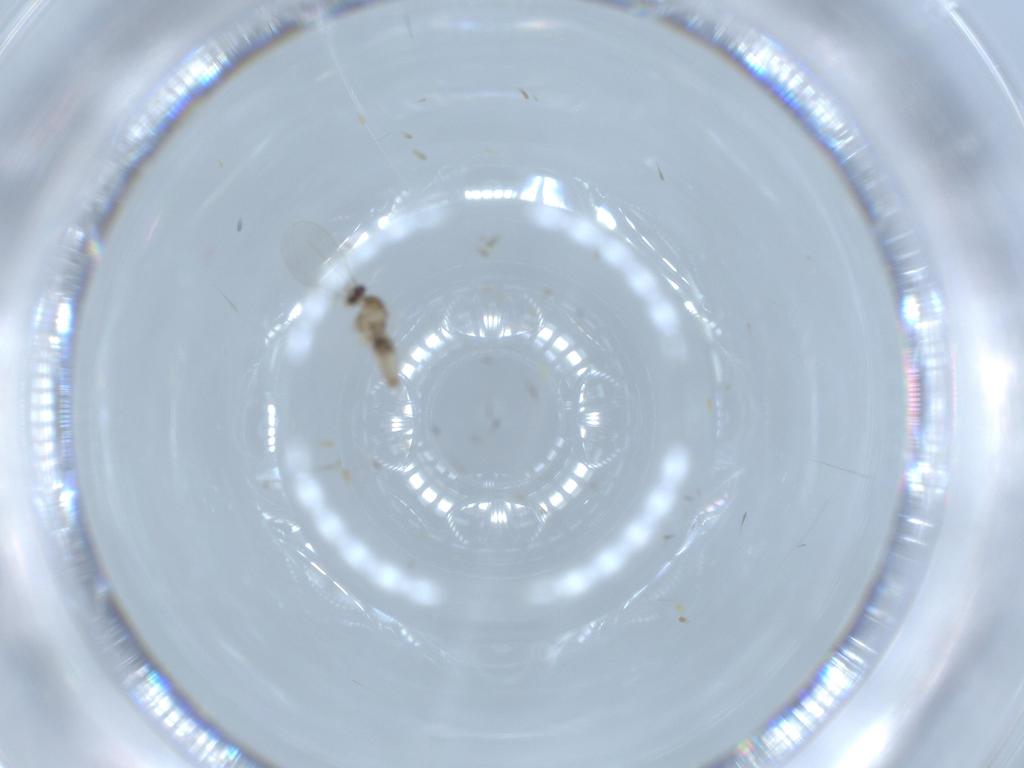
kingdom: Animalia
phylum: Arthropoda
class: Insecta
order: Diptera
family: Cecidomyiidae
